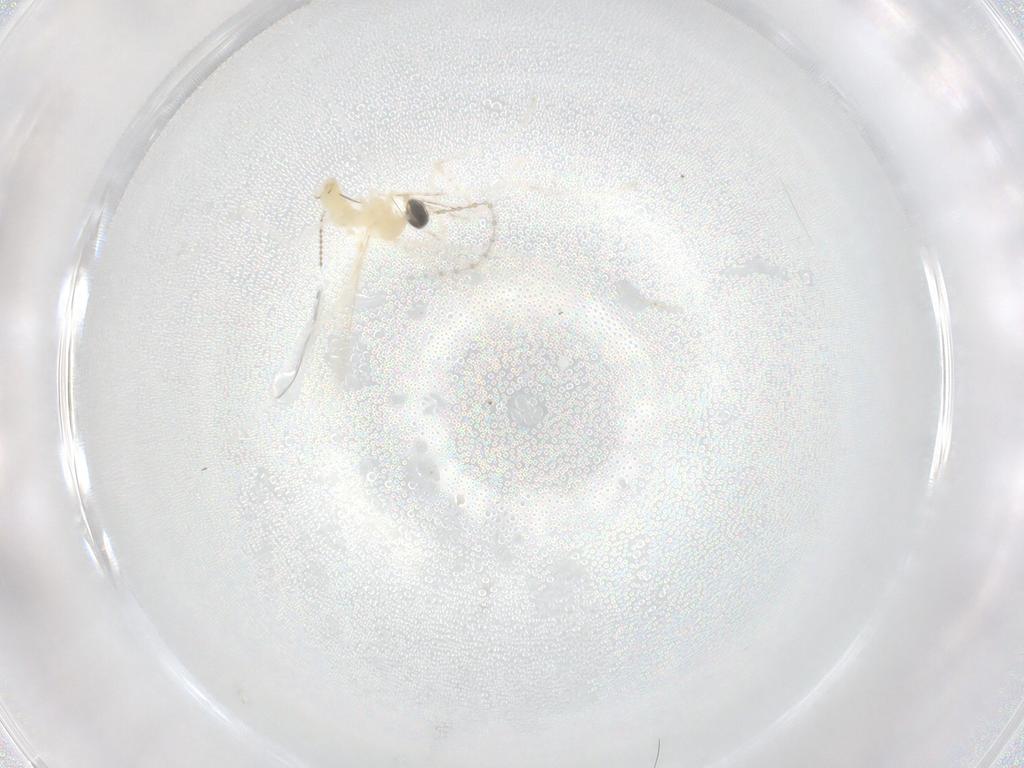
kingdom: Animalia
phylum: Arthropoda
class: Insecta
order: Diptera
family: Cecidomyiidae
